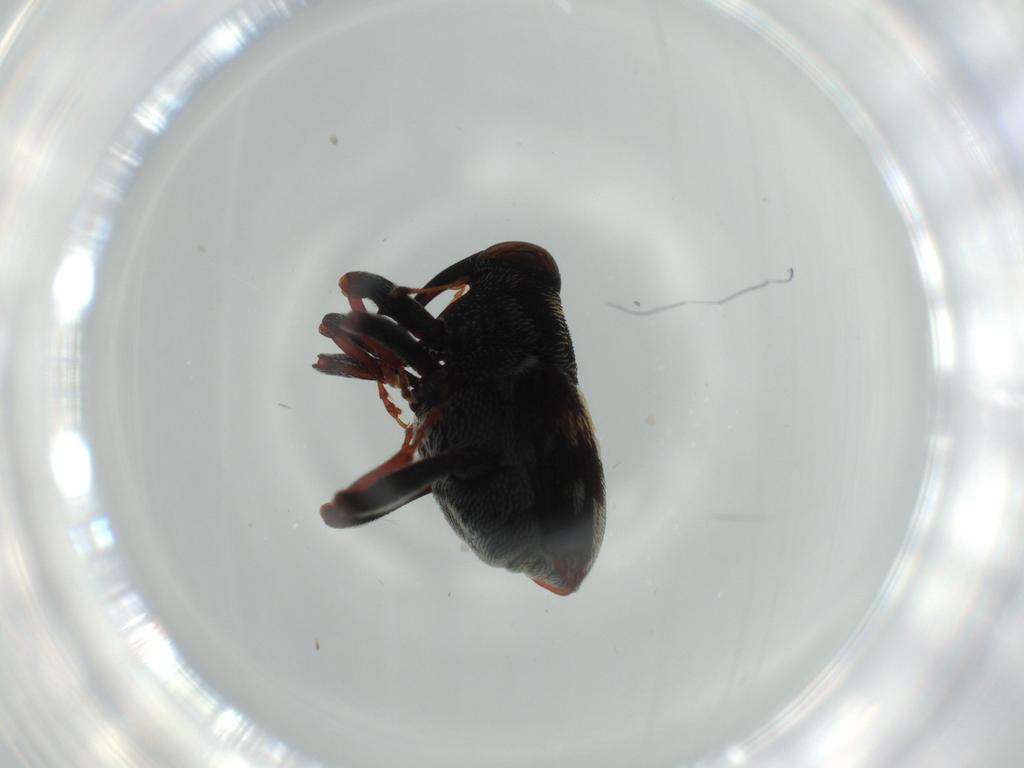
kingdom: Animalia
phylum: Arthropoda
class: Insecta
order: Coleoptera
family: Curculionidae
